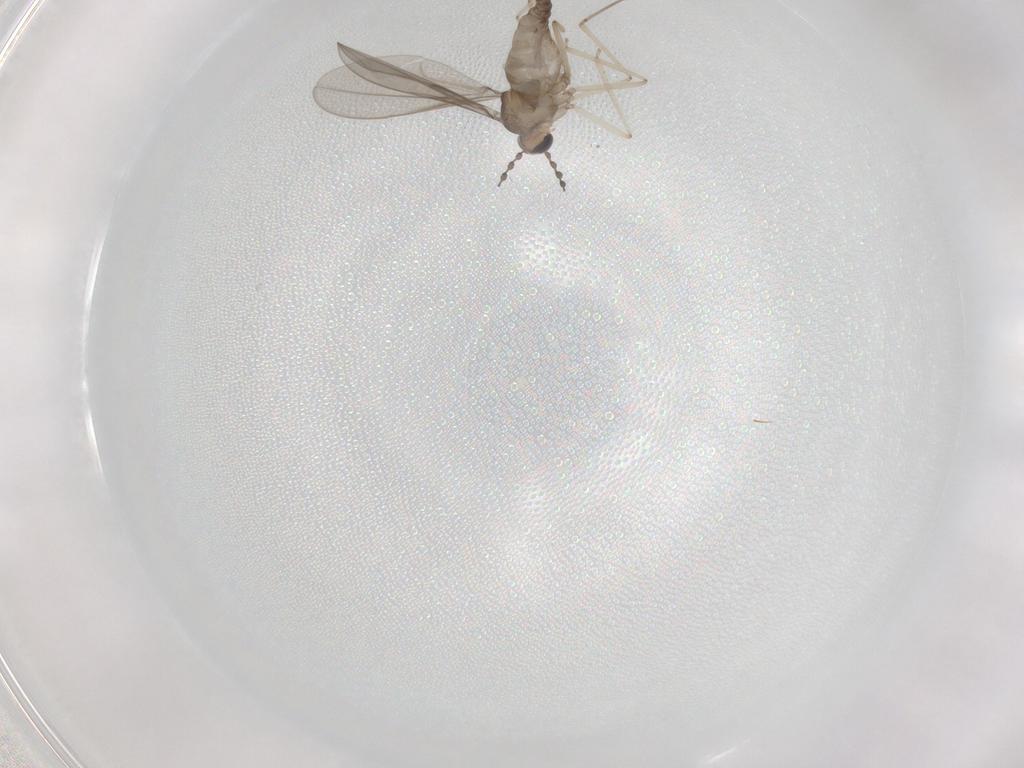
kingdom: Animalia
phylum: Arthropoda
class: Insecta
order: Diptera
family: Cecidomyiidae
